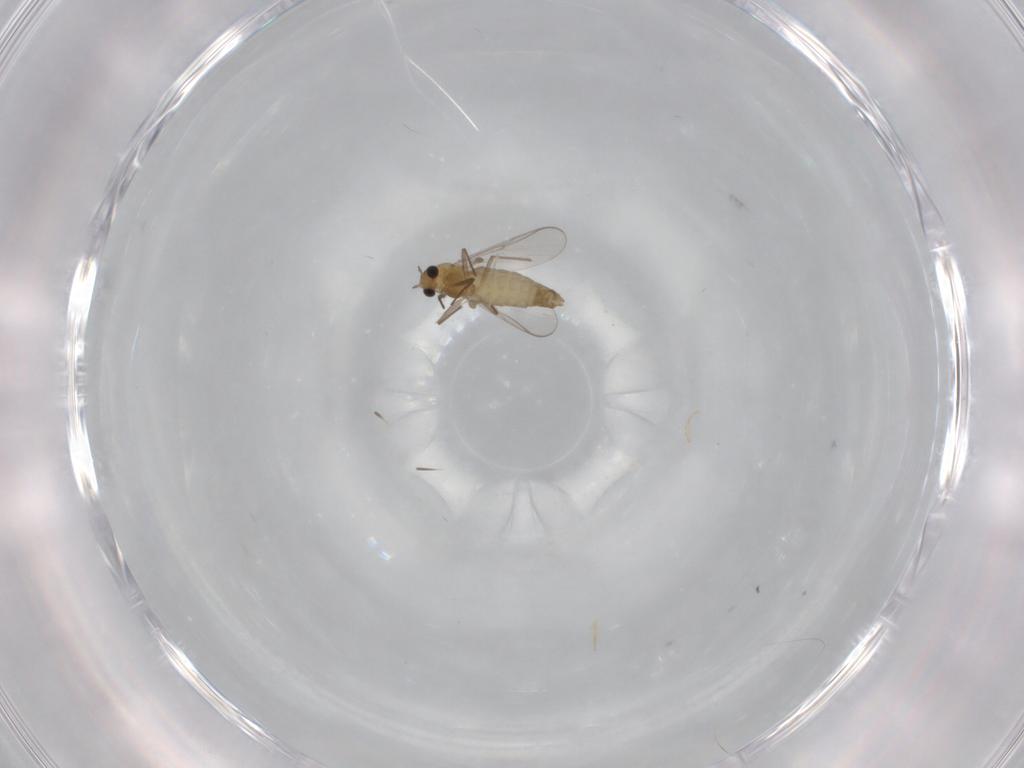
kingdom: Animalia
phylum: Arthropoda
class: Insecta
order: Diptera
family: Chironomidae
